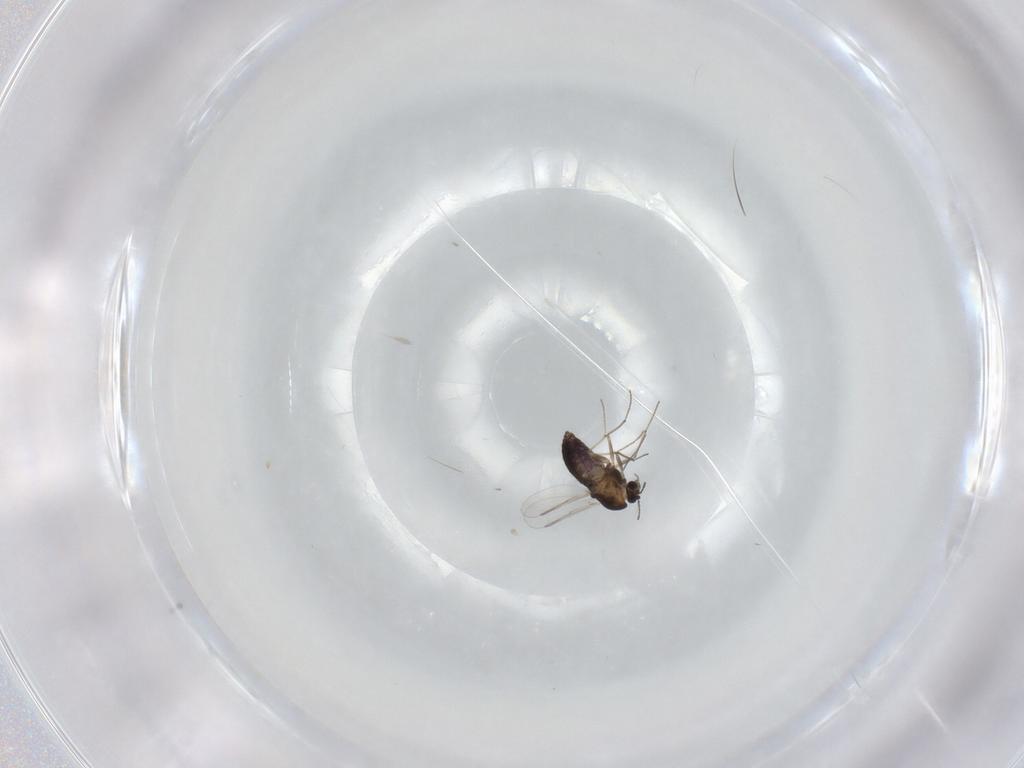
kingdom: Animalia
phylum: Arthropoda
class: Insecta
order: Diptera
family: Chironomidae
